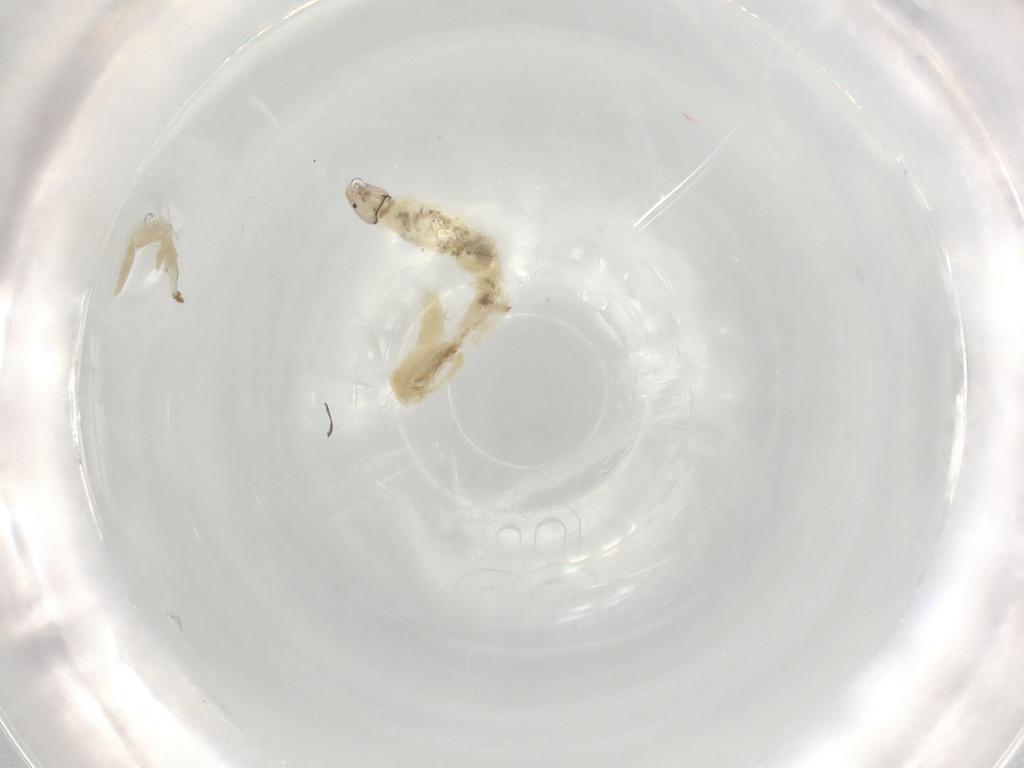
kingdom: Animalia
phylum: Arthropoda
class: Insecta
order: Diptera
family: Chironomidae
